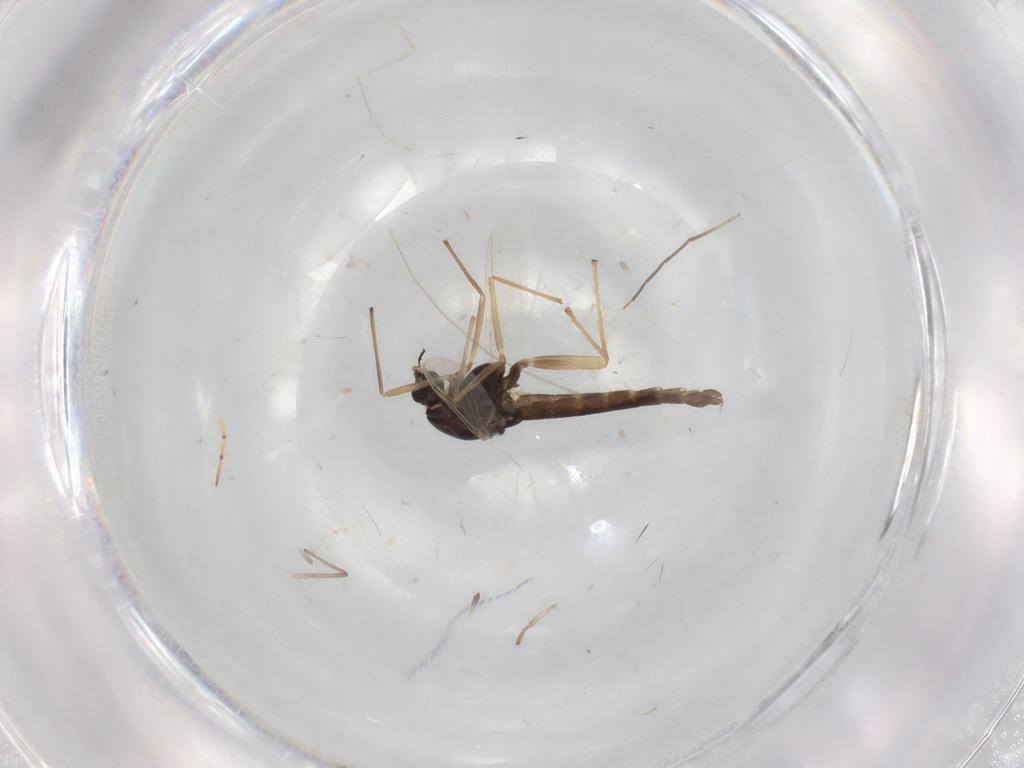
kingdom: Animalia
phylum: Arthropoda
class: Insecta
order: Diptera
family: Chironomidae
